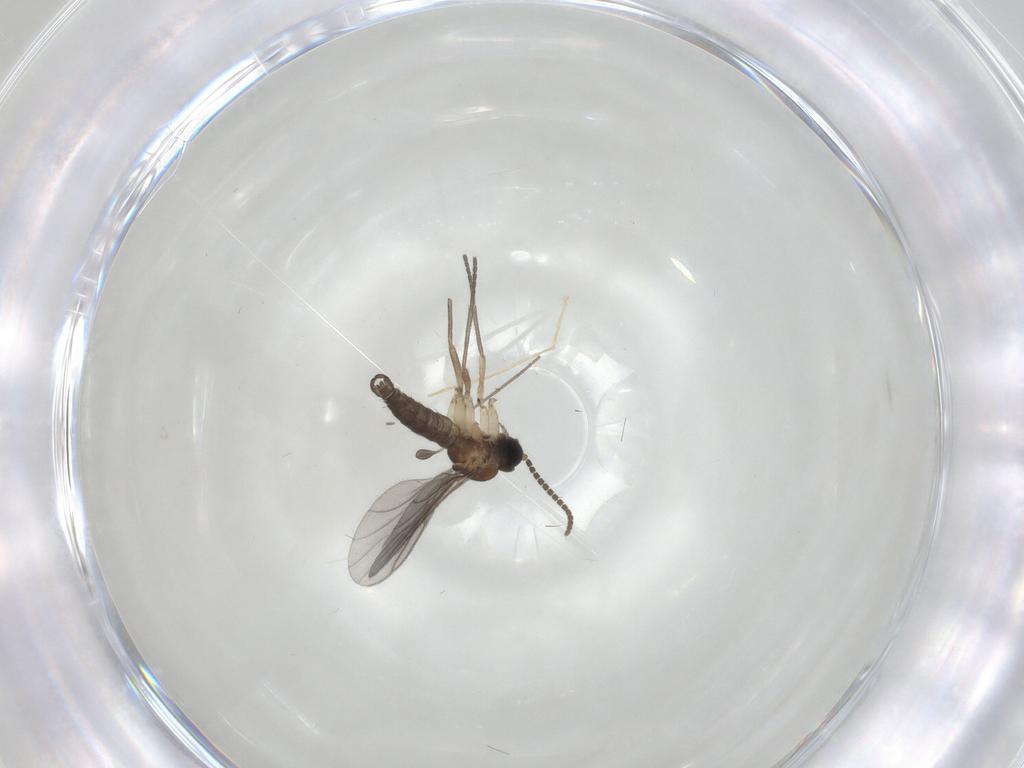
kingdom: Animalia
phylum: Arthropoda
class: Insecta
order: Diptera
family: Sciaridae
